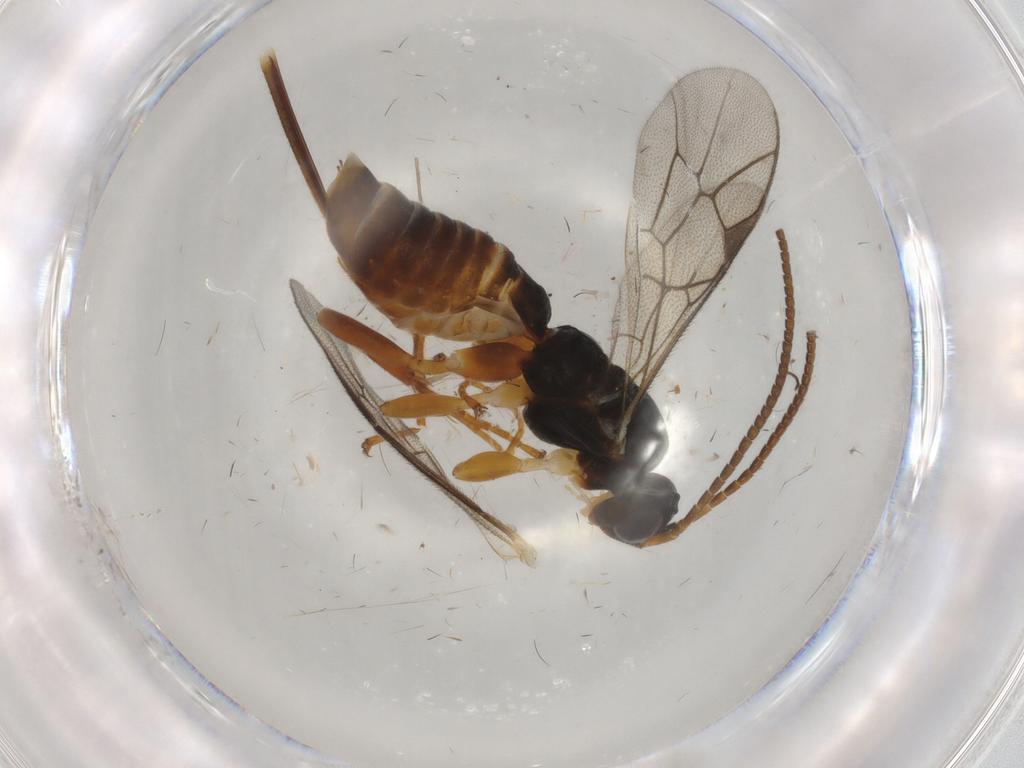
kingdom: Animalia
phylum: Arthropoda
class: Insecta
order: Hymenoptera
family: Ichneumonidae
